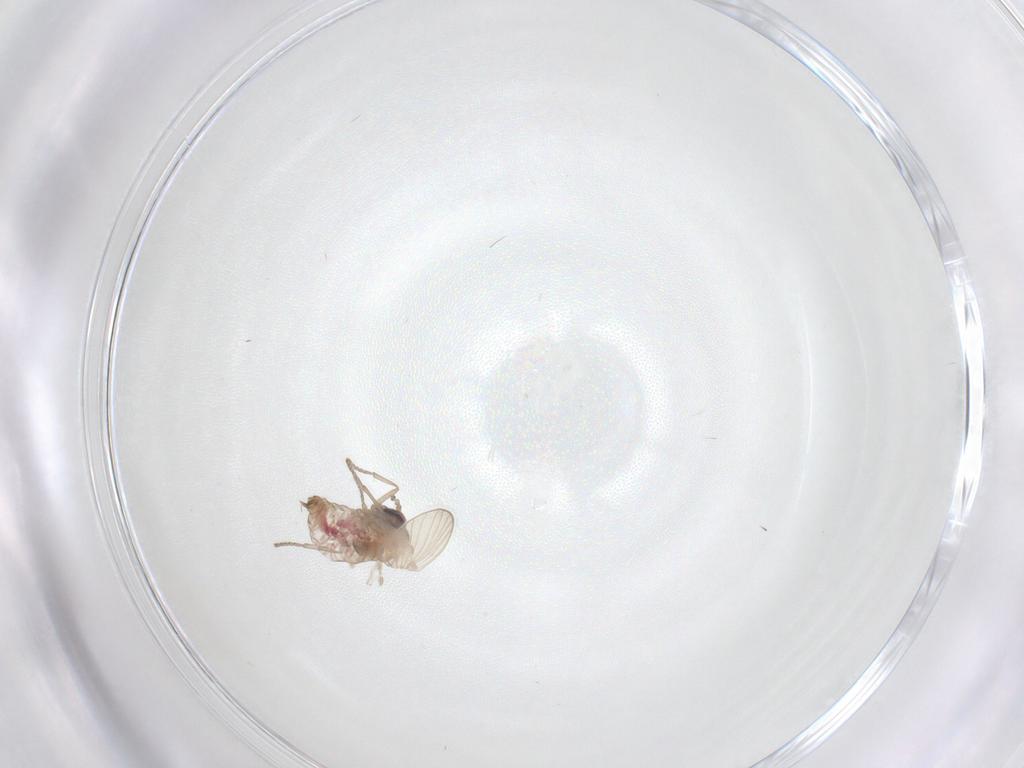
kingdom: Animalia
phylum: Arthropoda
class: Insecta
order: Diptera
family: Psychodidae
